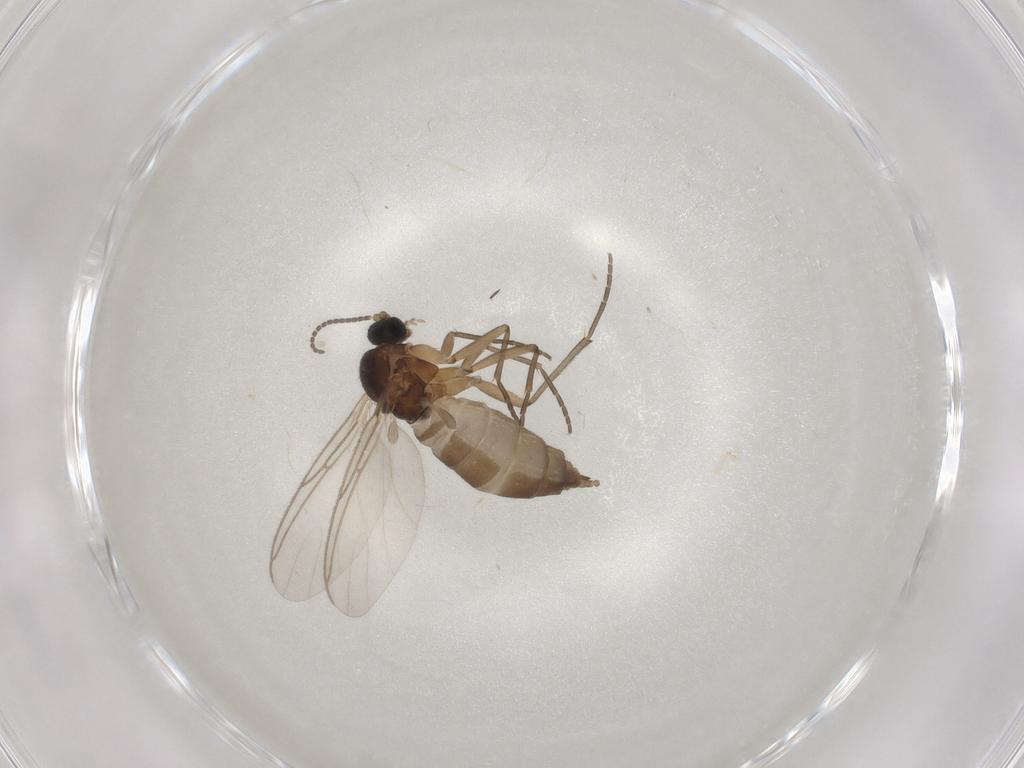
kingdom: Animalia
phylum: Arthropoda
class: Insecta
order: Diptera
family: Sciaridae
